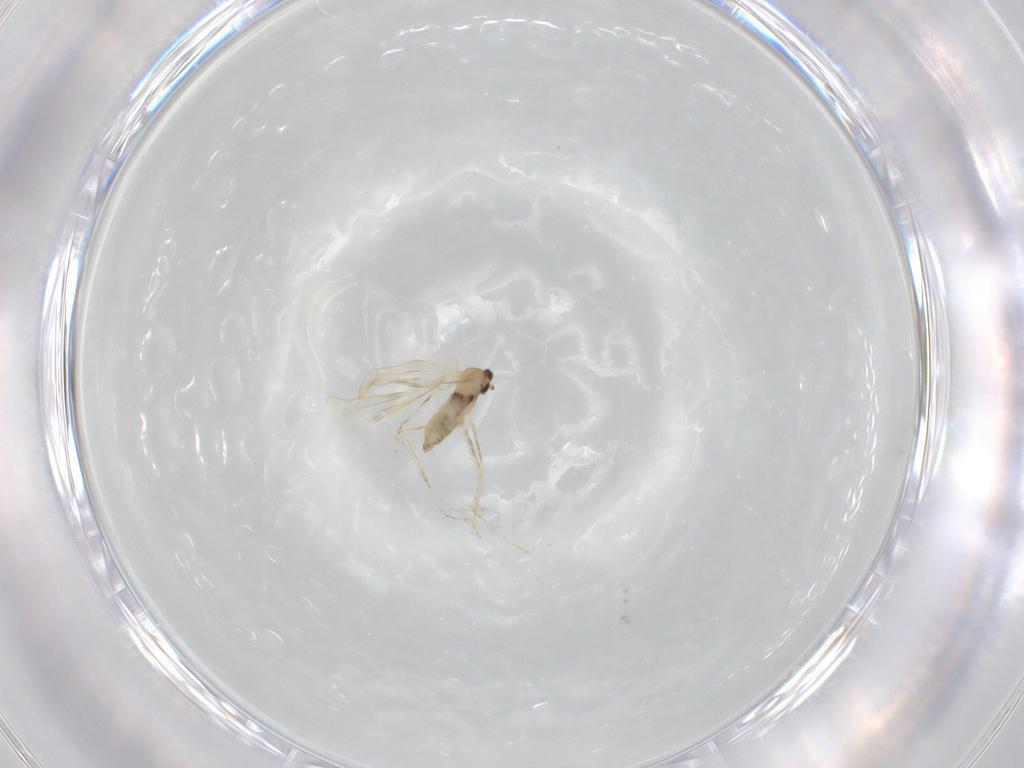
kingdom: Animalia
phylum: Arthropoda
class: Insecta
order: Diptera
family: Cecidomyiidae
